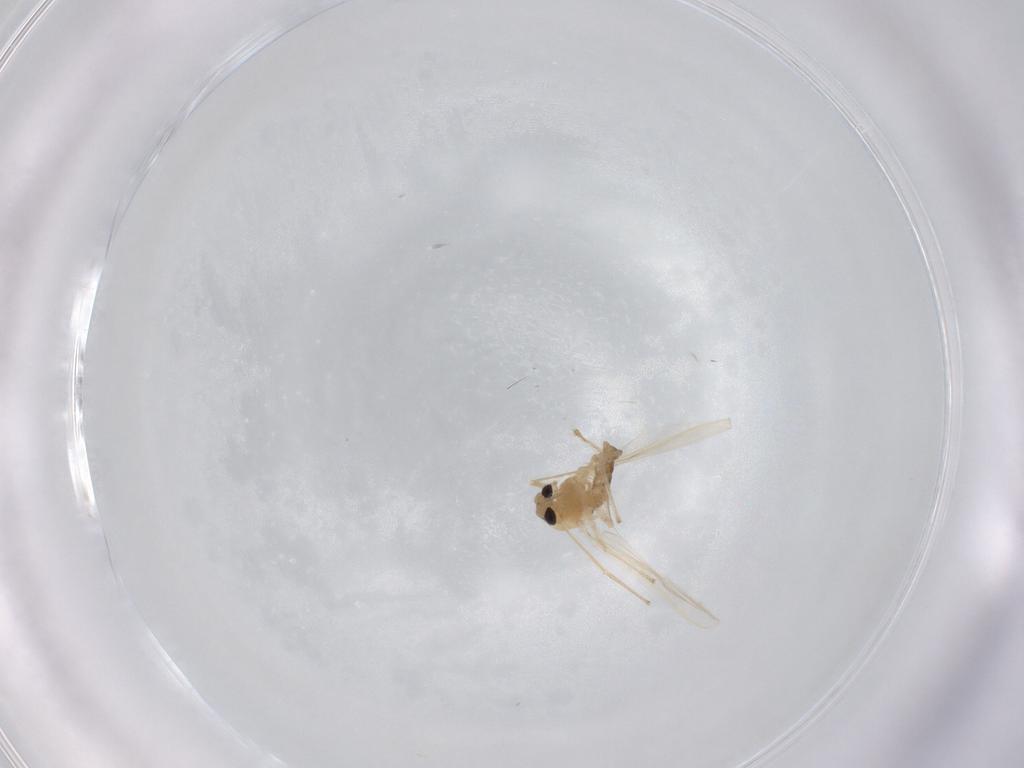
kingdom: Animalia
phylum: Arthropoda
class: Insecta
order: Diptera
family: Chironomidae
